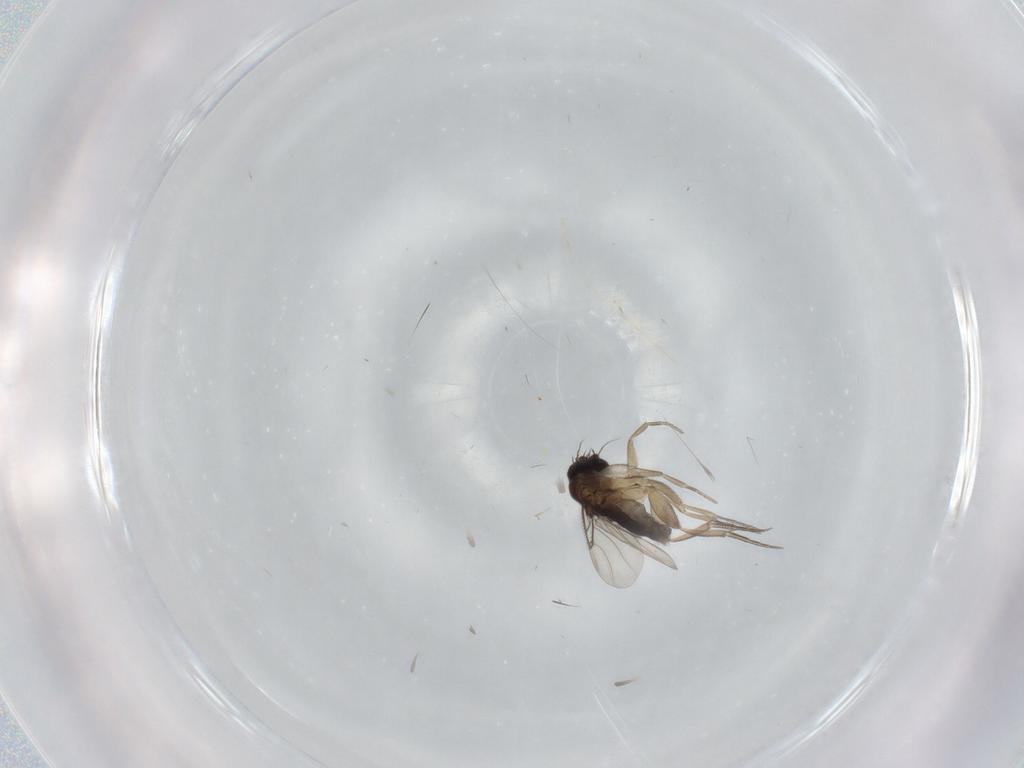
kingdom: Animalia
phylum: Arthropoda
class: Insecta
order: Diptera
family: Phoridae
